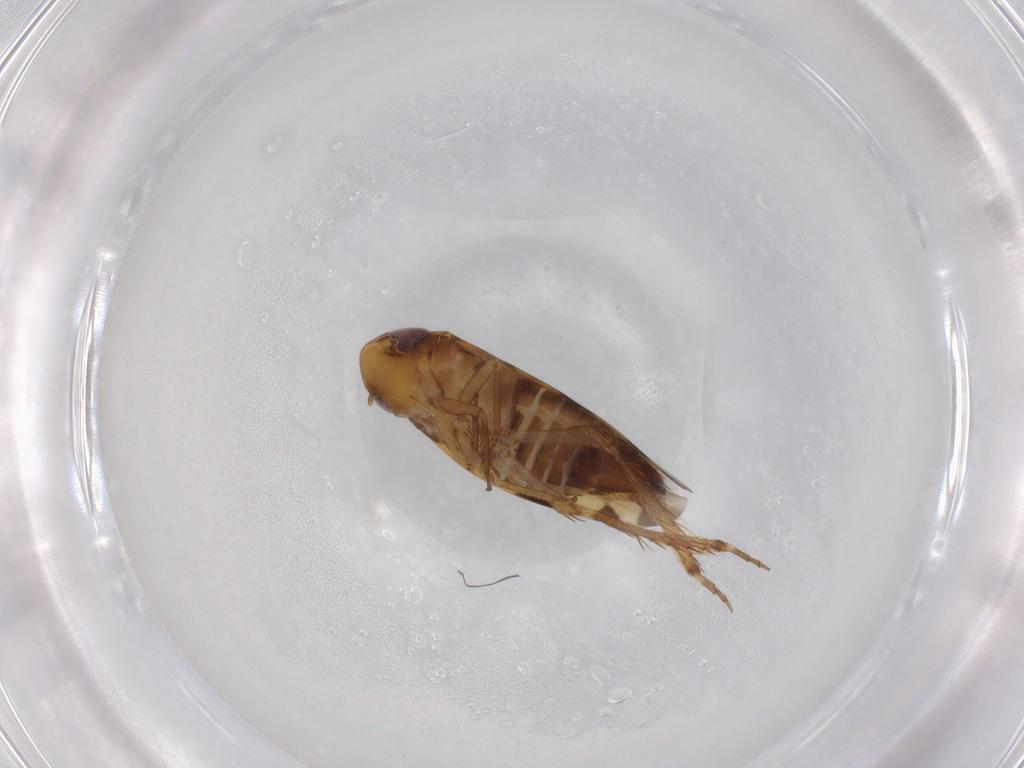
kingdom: Animalia
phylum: Arthropoda
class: Insecta
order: Hemiptera
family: Cicadellidae
